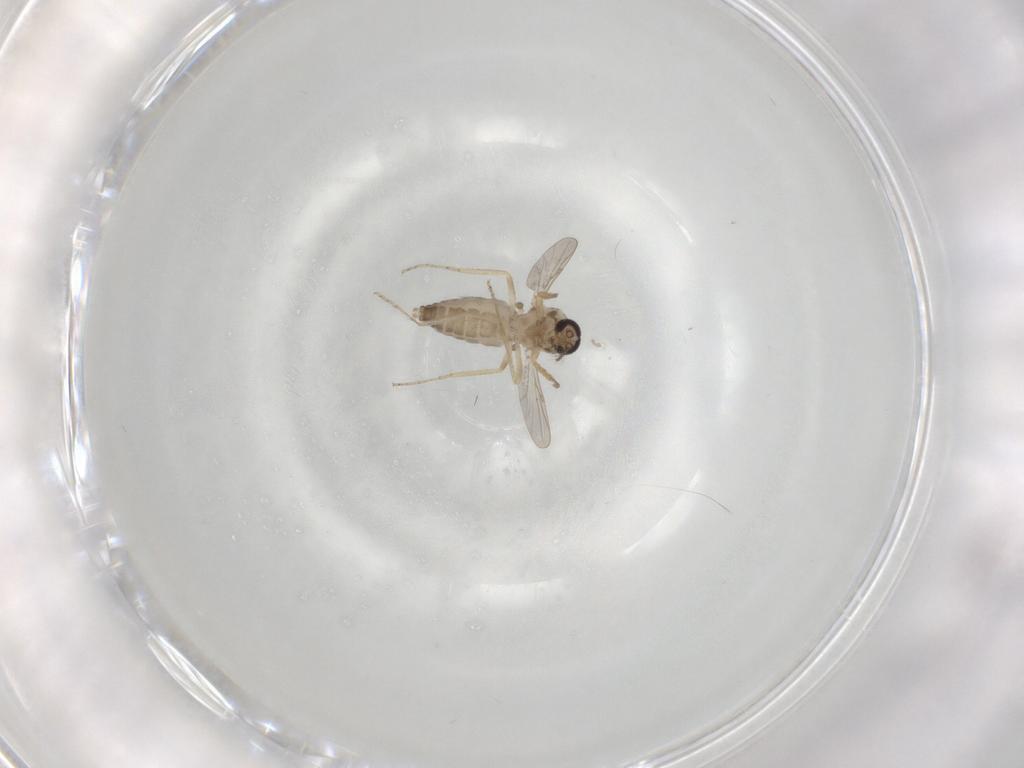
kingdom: Animalia
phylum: Arthropoda
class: Insecta
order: Diptera
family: Ceratopogonidae
